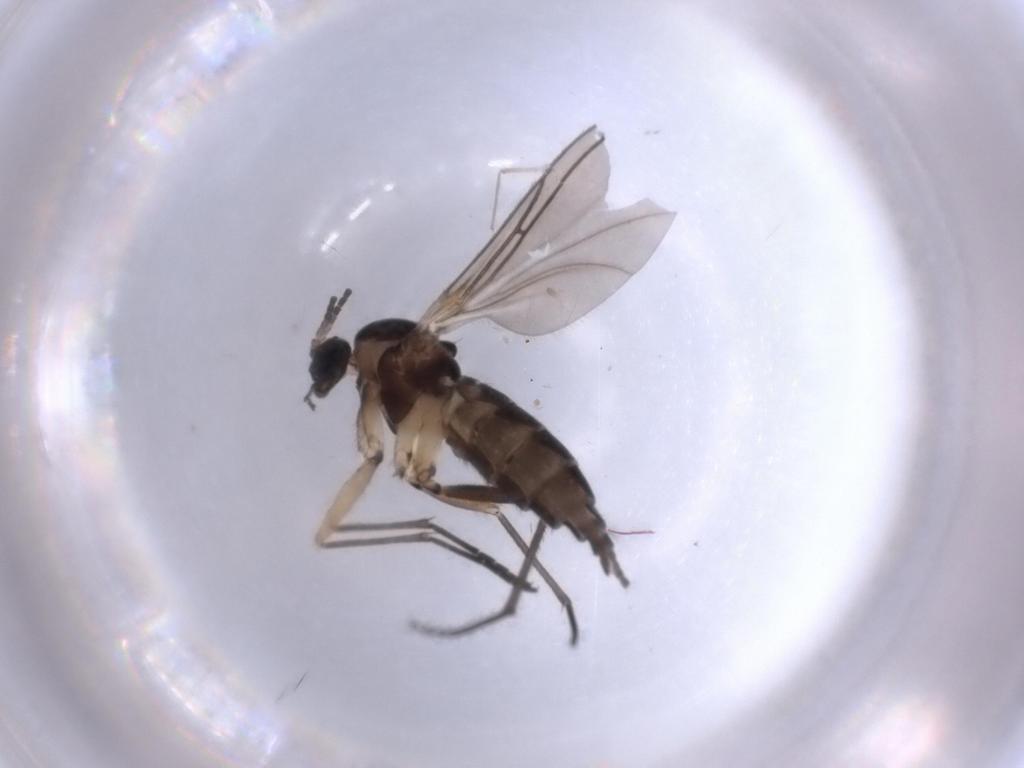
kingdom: Animalia
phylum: Arthropoda
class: Insecta
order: Diptera
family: Sciaridae
